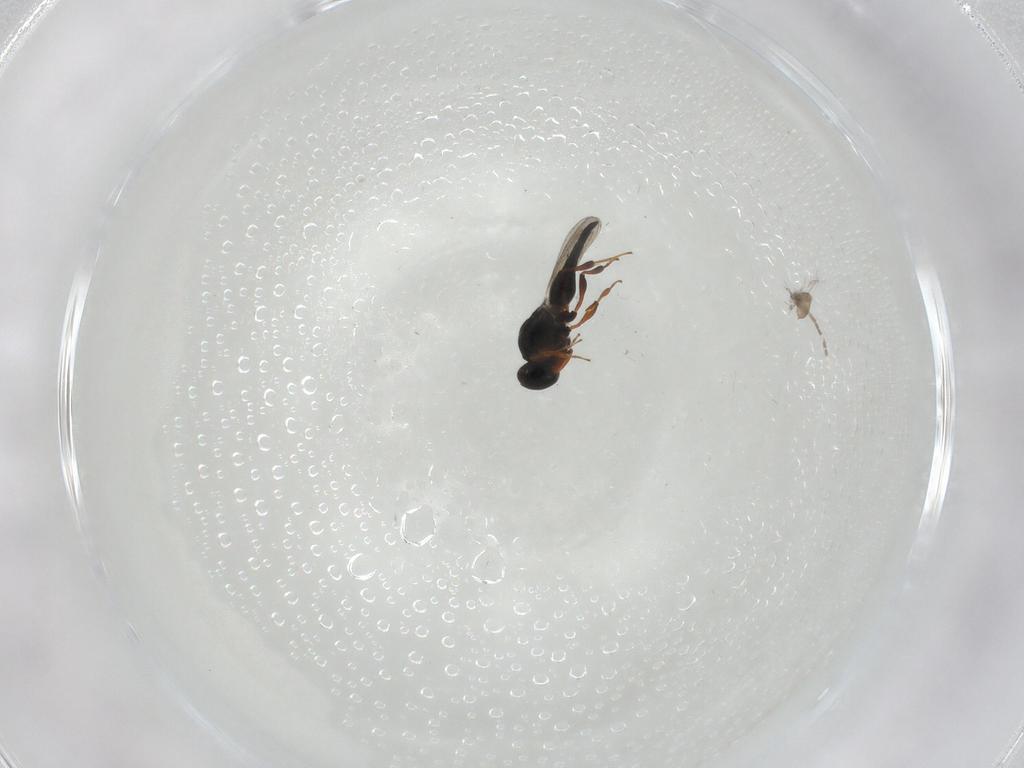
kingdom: Animalia
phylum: Arthropoda
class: Insecta
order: Hymenoptera
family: Platygastridae
